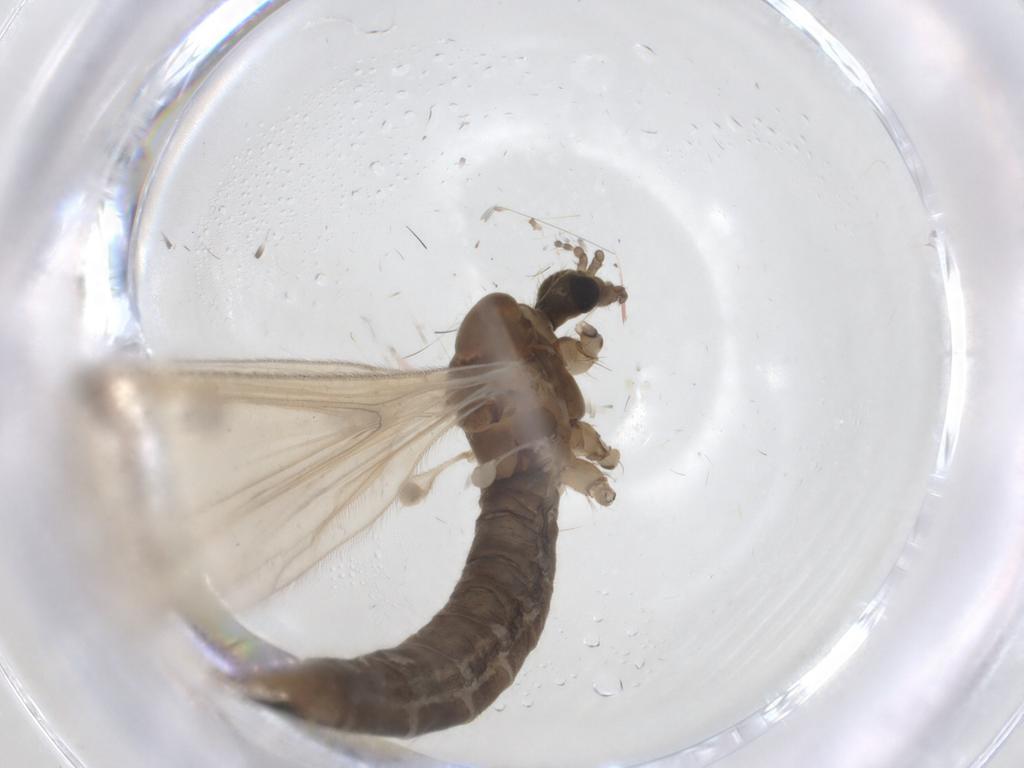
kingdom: Animalia
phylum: Arthropoda
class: Insecta
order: Diptera
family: Limoniidae
